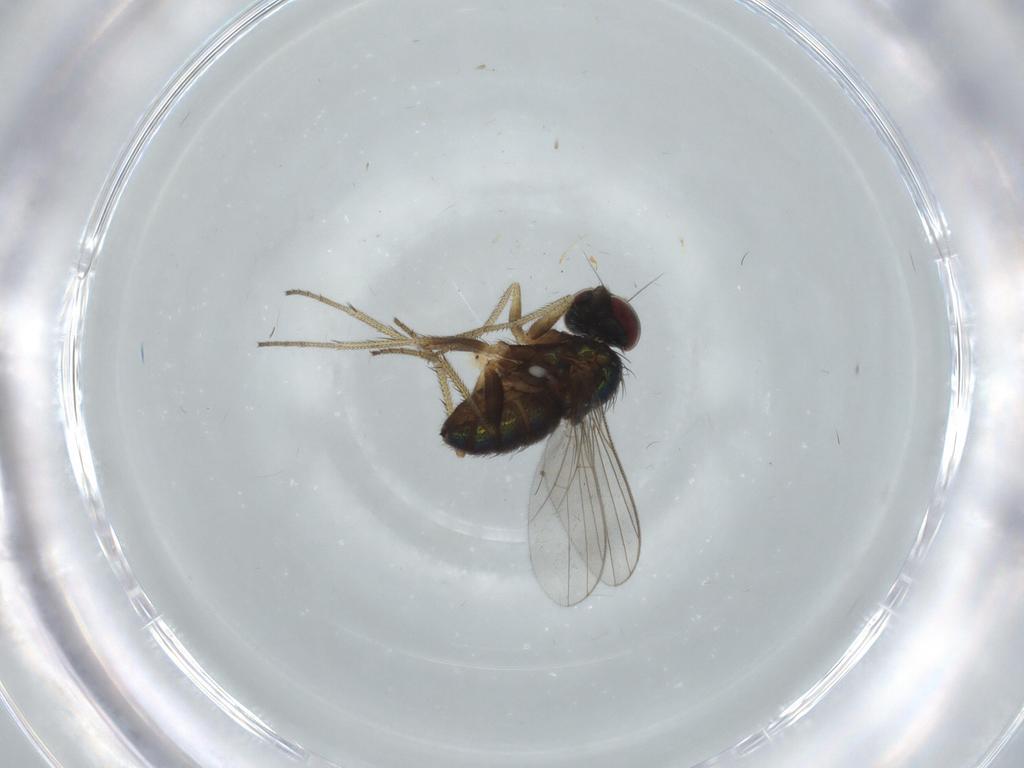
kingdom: Animalia
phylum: Arthropoda
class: Insecta
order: Diptera
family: Dolichopodidae
